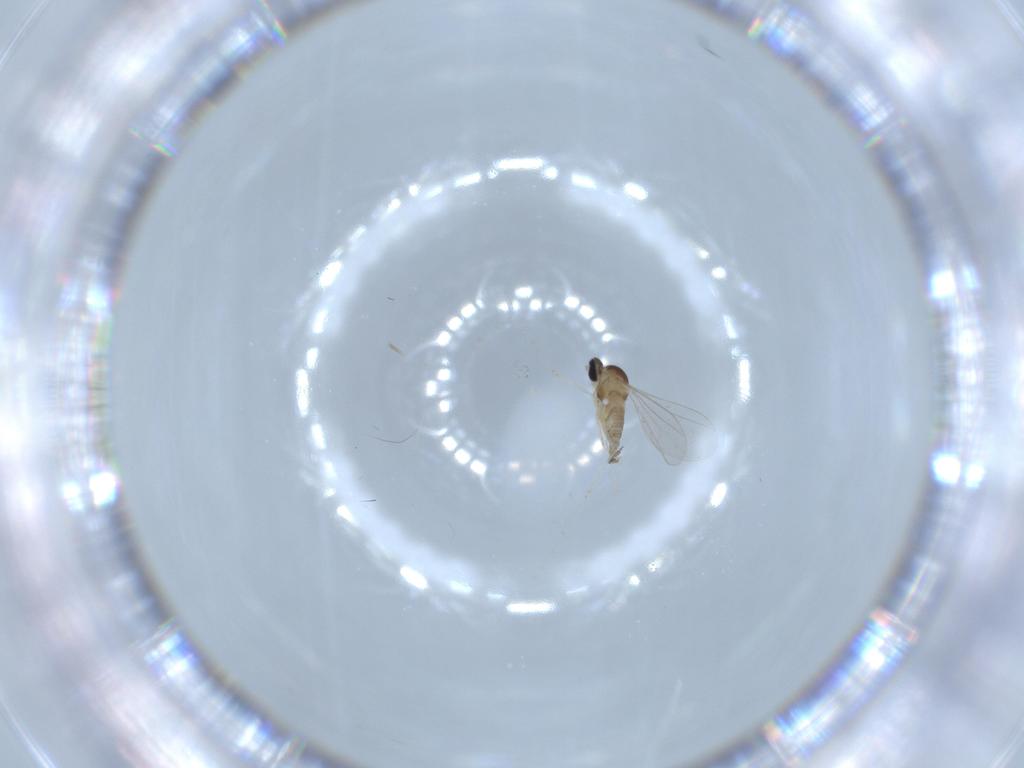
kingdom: Animalia
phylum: Arthropoda
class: Insecta
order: Diptera
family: Cecidomyiidae
